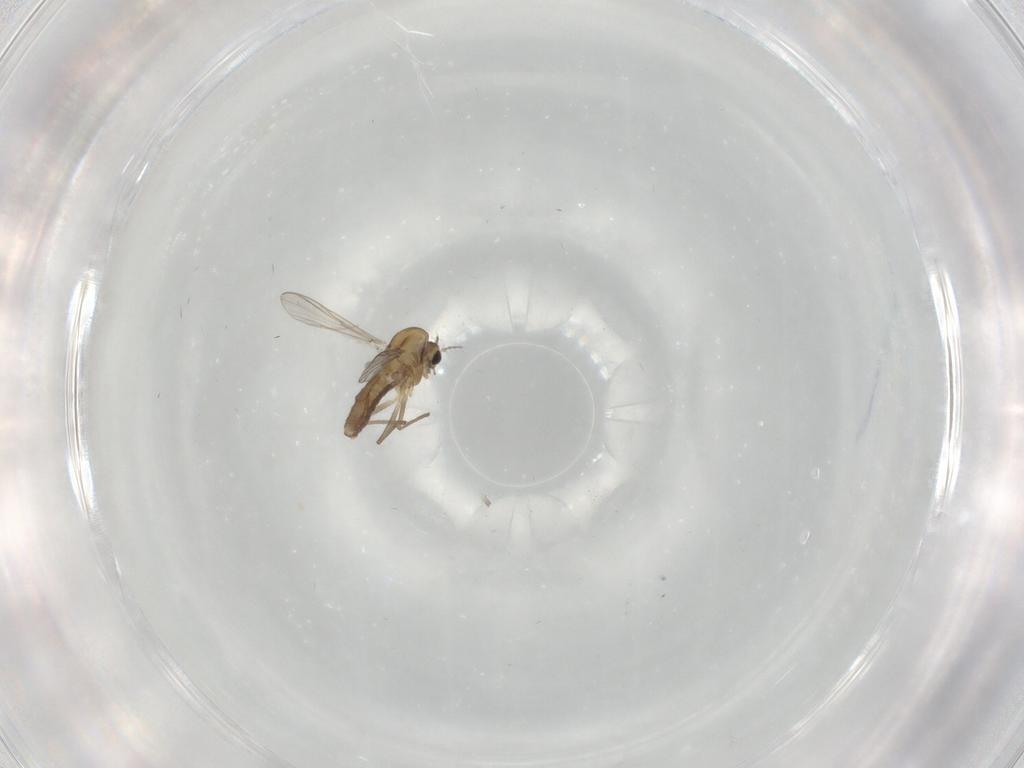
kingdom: Animalia
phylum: Arthropoda
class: Insecta
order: Diptera
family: Chironomidae
